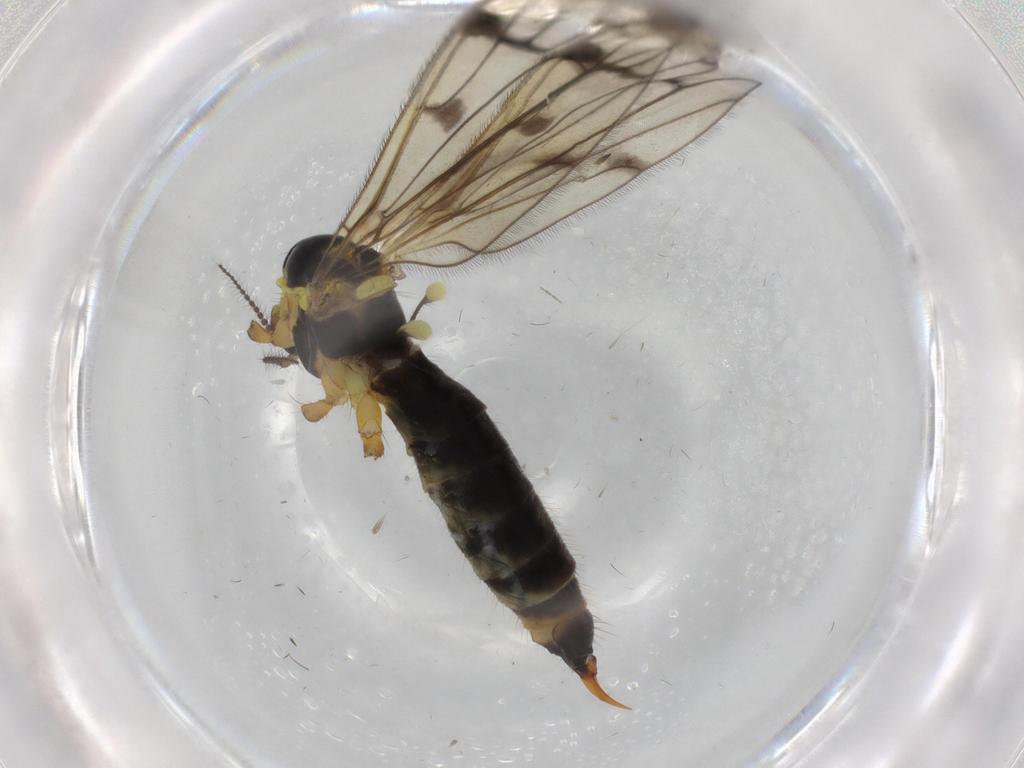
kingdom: Animalia
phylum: Arthropoda
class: Insecta
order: Diptera
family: Limoniidae
